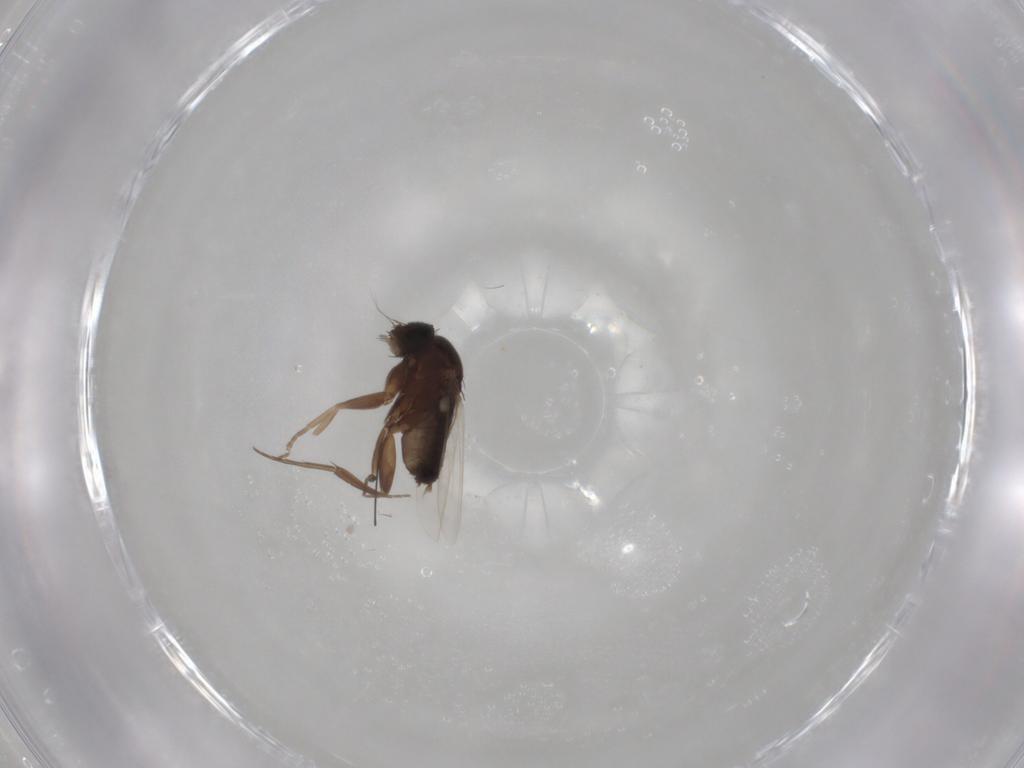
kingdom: Animalia
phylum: Arthropoda
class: Insecta
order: Diptera
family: Phoridae
